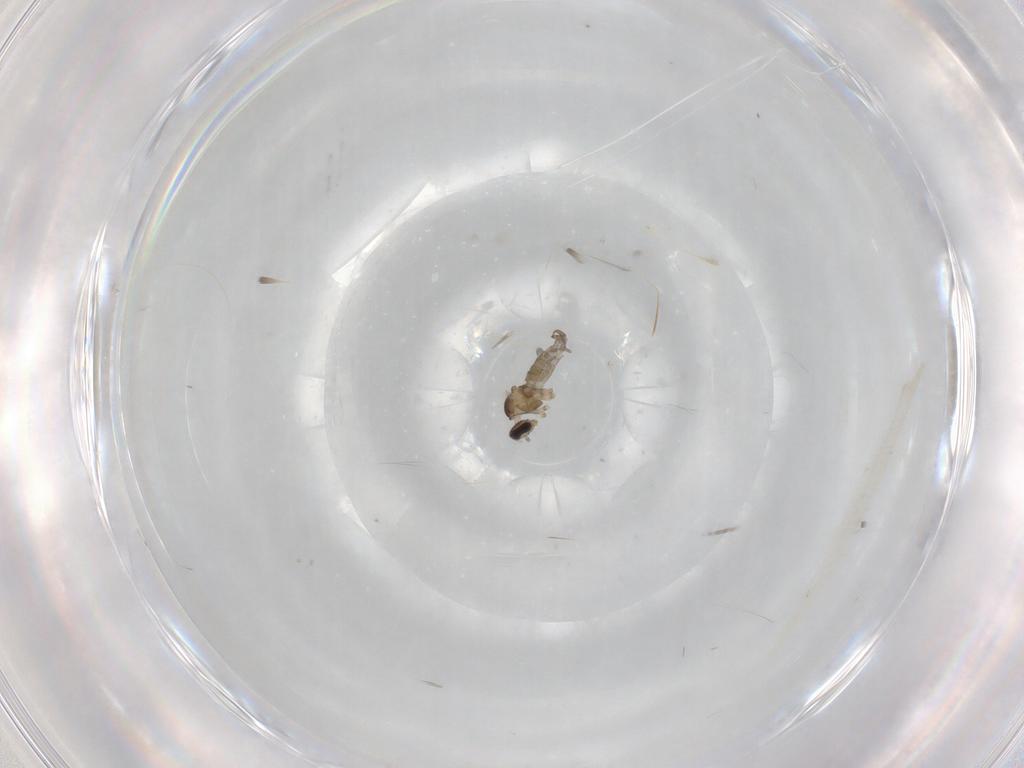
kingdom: Animalia
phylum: Arthropoda
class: Insecta
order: Diptera
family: Cecidomyiidae
